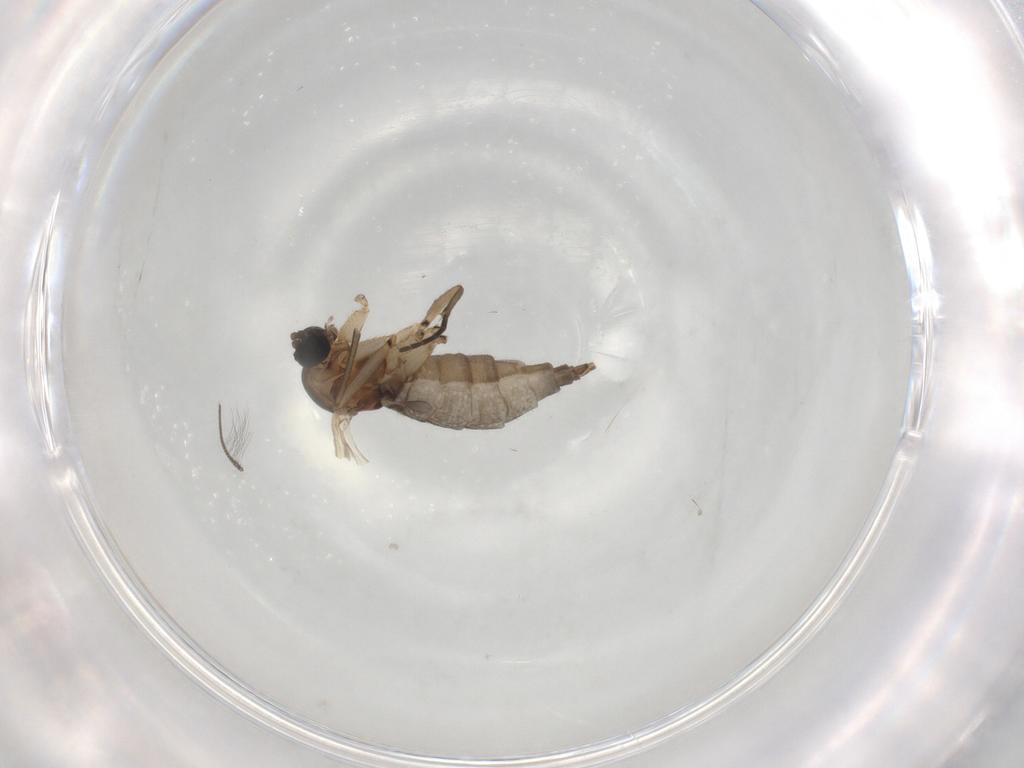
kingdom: Animalia
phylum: Arthropoda
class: Insecta
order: Diptera
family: Sciaridae
